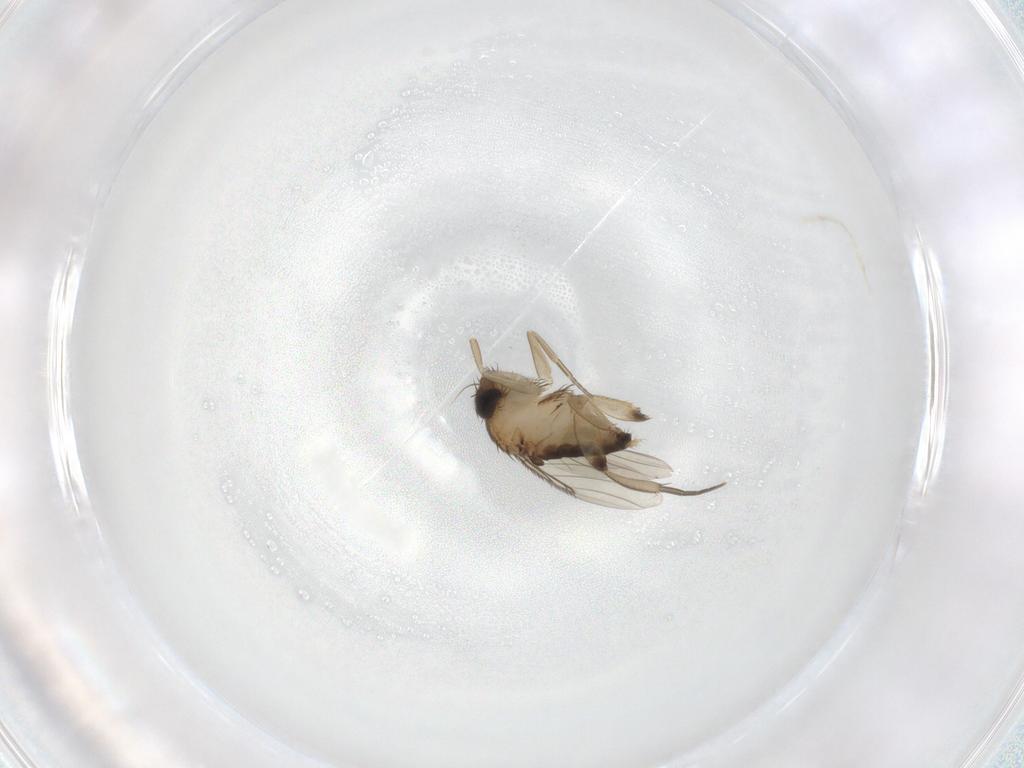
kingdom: Animalia
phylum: Arthropoda
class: Insecta
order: Diptera
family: Phoridae
